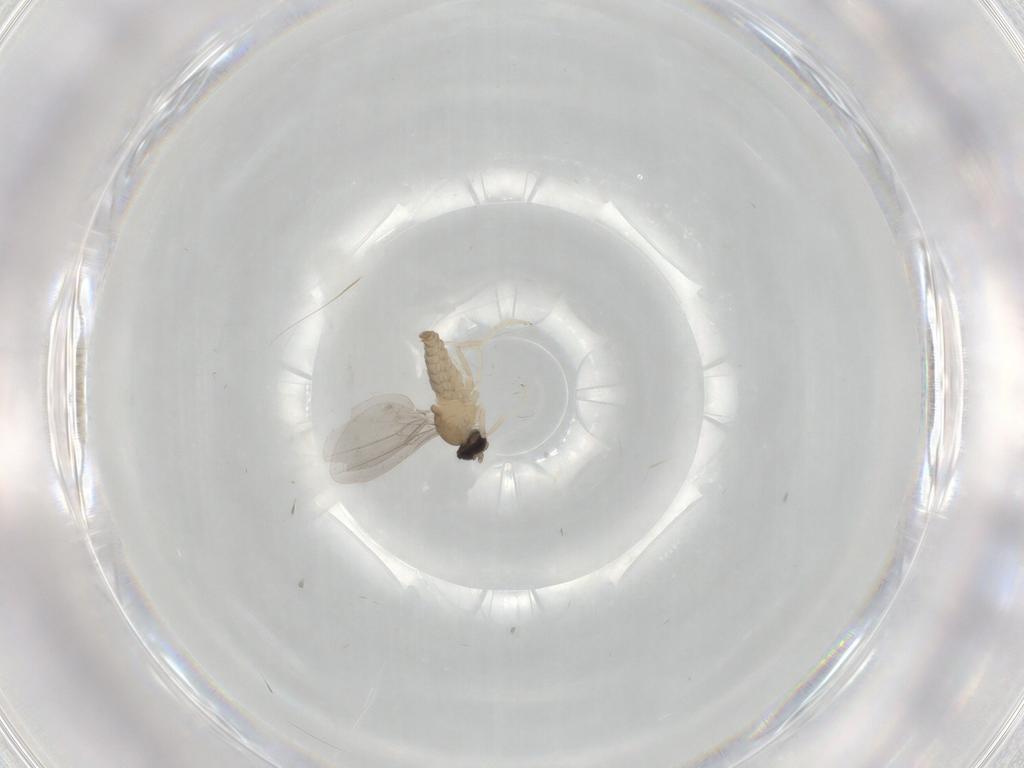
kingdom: Animalia
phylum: Arthropoda
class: Insecta
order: Diptera
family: Cecidomyiidae
